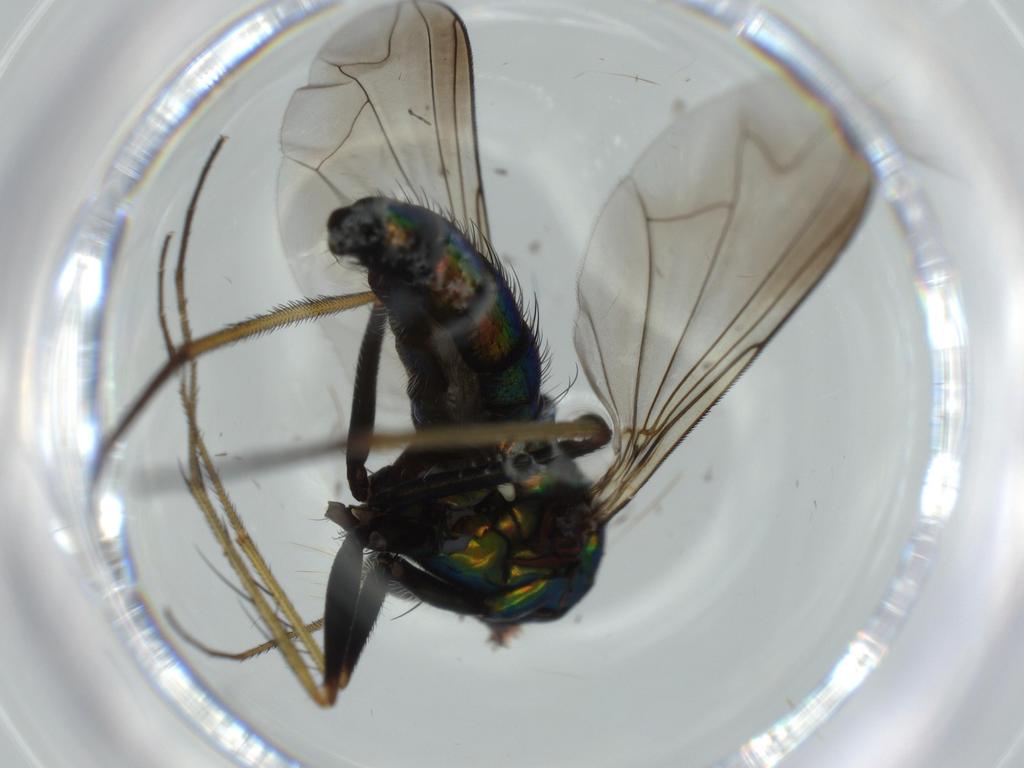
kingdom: Animalia
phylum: Arthropoda
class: Insecta
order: Diptera
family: Dolichopodidae
